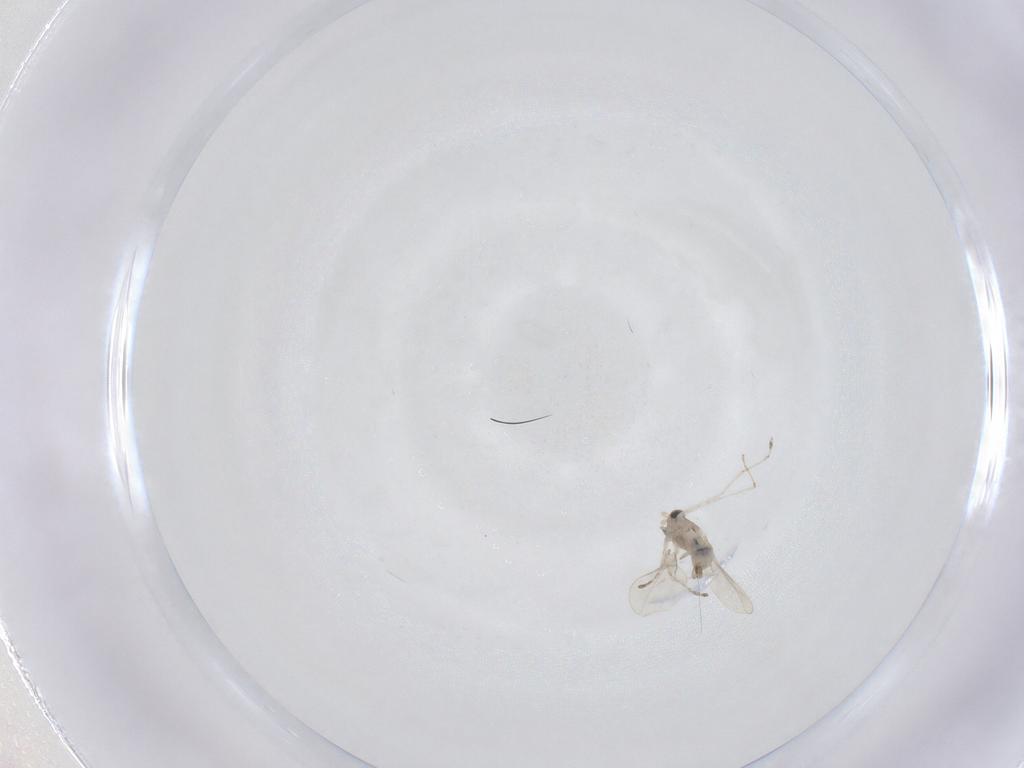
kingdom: Animalia
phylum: Arthropoda
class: Insecta
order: Diptera
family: Cecidomyiidae
